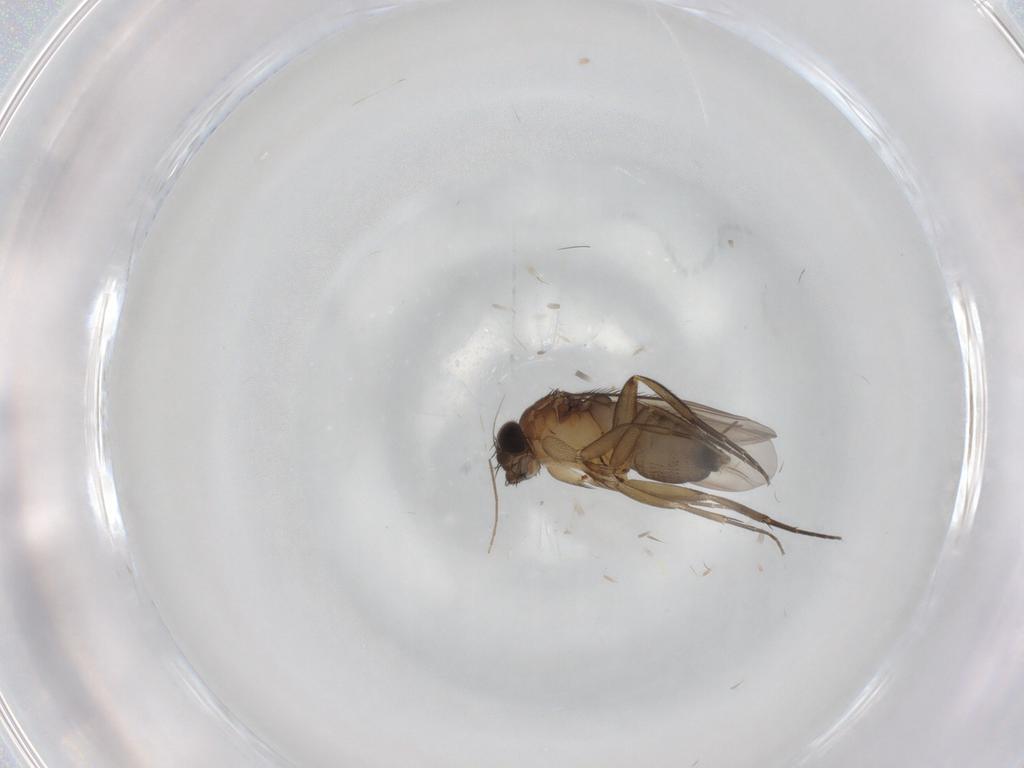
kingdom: Animalia
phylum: Arthropoda
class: Insecta
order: Diptera
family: Phoridae
